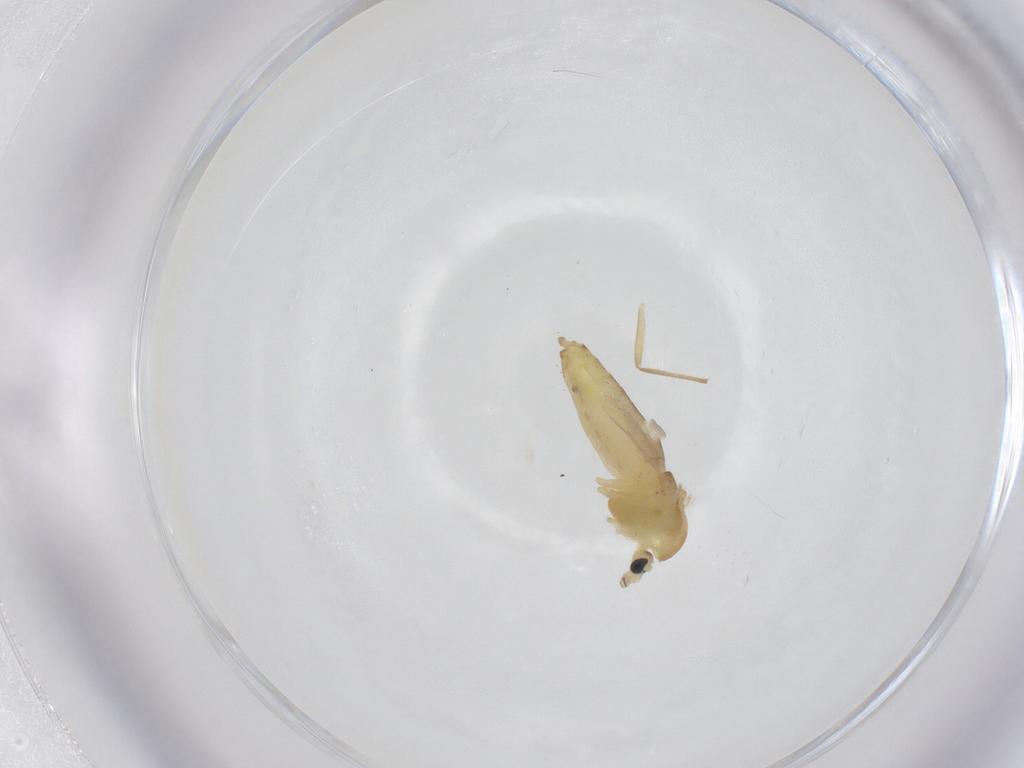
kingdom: Animalia
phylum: Arthropoda
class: Insecta
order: Diptera
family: Chironomidae
